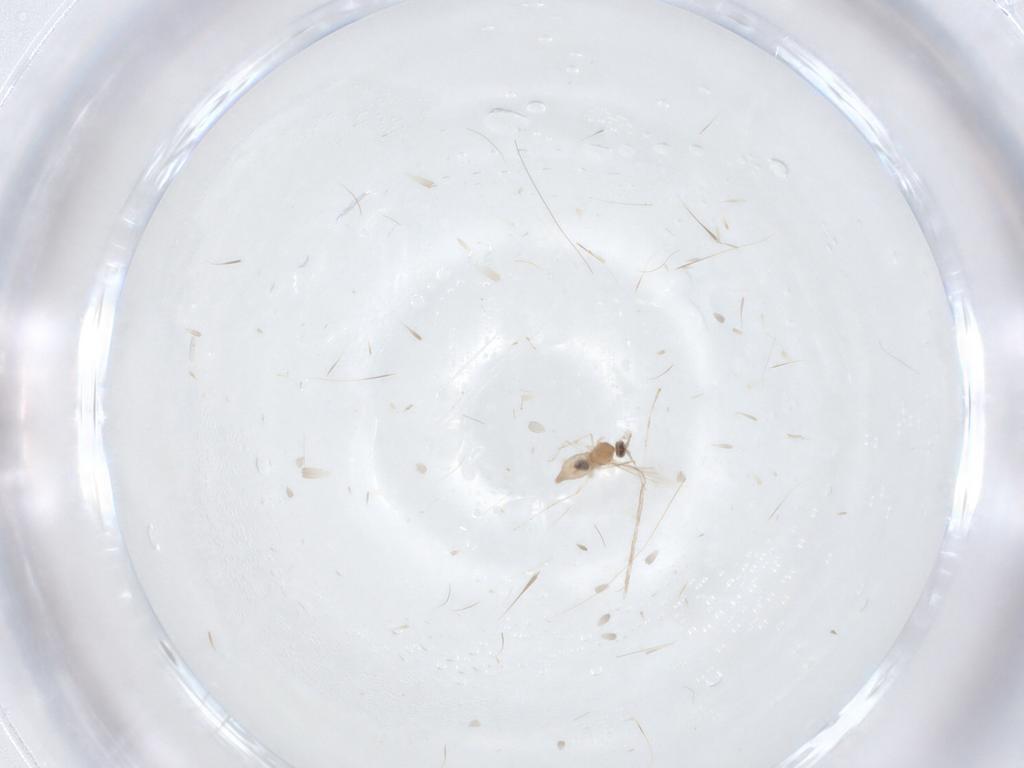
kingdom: Animalia
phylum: Arthropoda
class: Insecta
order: Diptera
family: Cecidomyiidae
